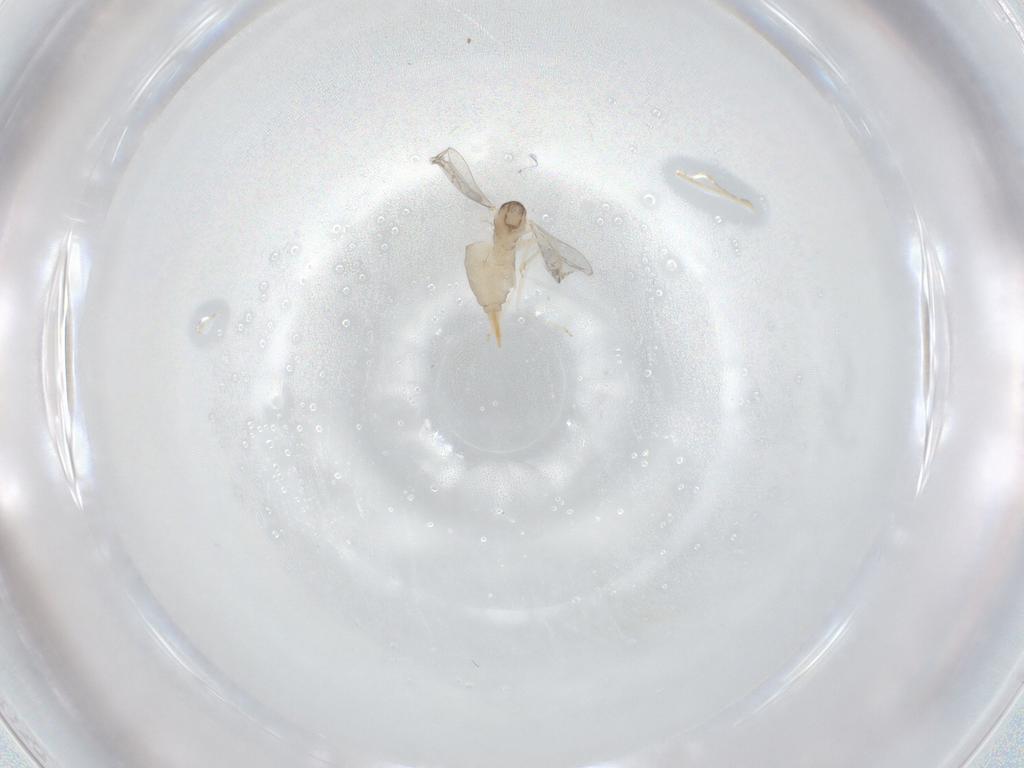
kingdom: Animalia
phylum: Arthropoda
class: Insecta
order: Diptera
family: Cecidomyiidae
